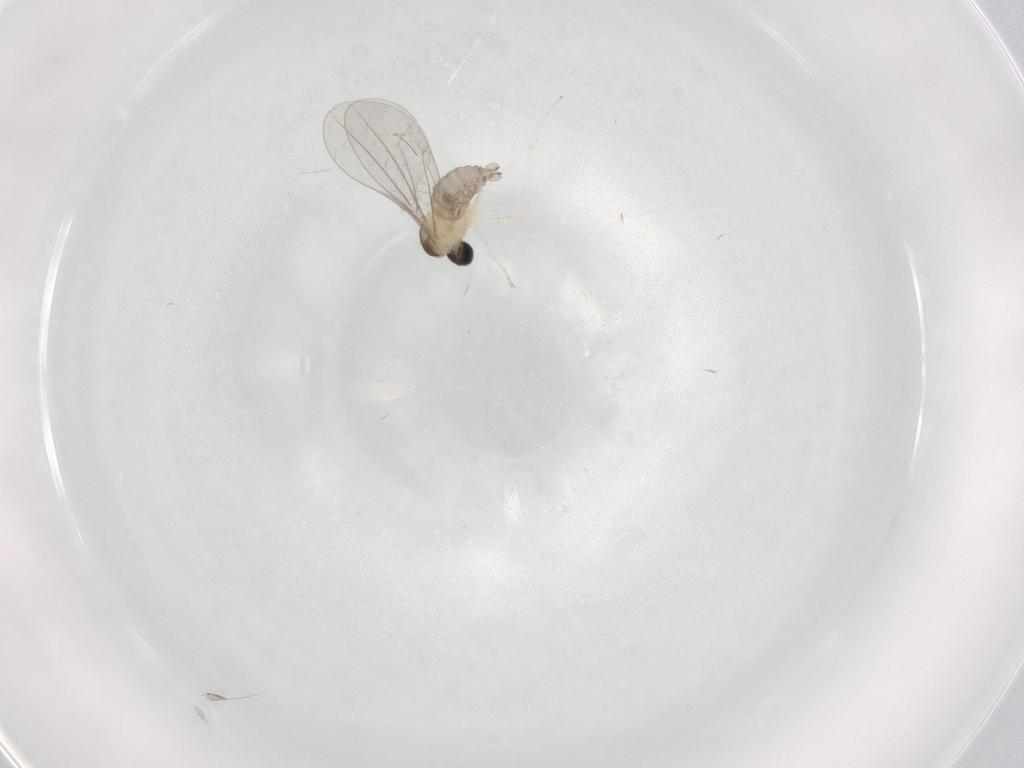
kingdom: Animalia
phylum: Arthropoda
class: Insecta
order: Diptera
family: Cecidomyiidae
